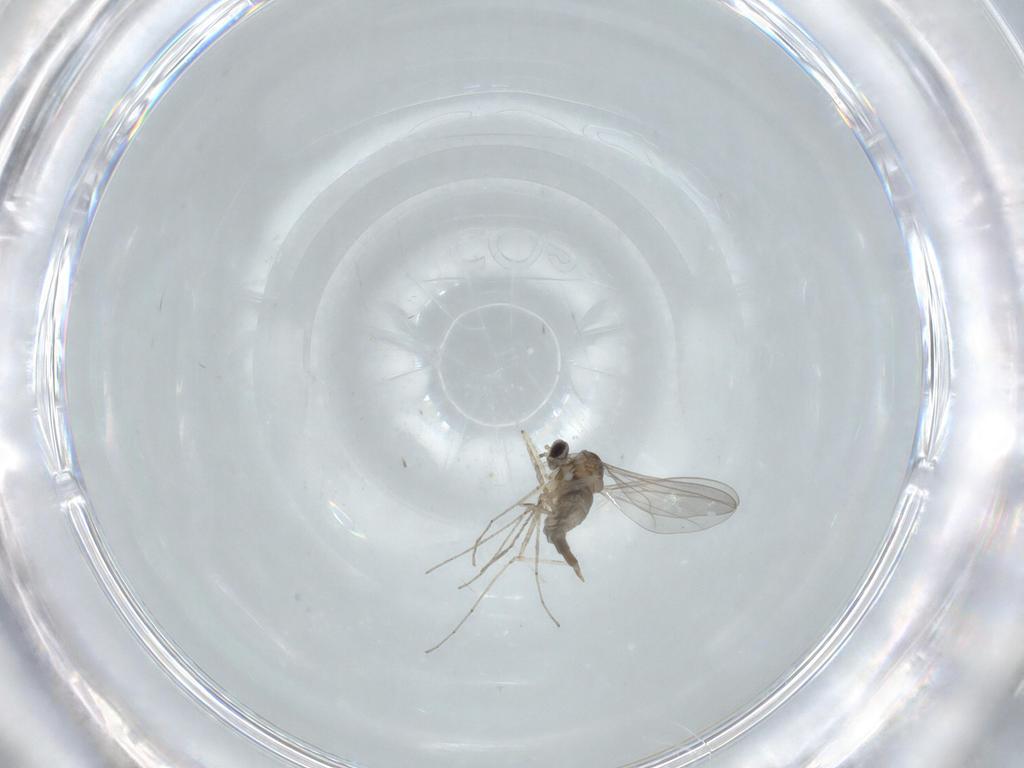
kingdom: Animalia
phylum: Arthropoda
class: Insecta
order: Diptera
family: Cecidomyiidae
